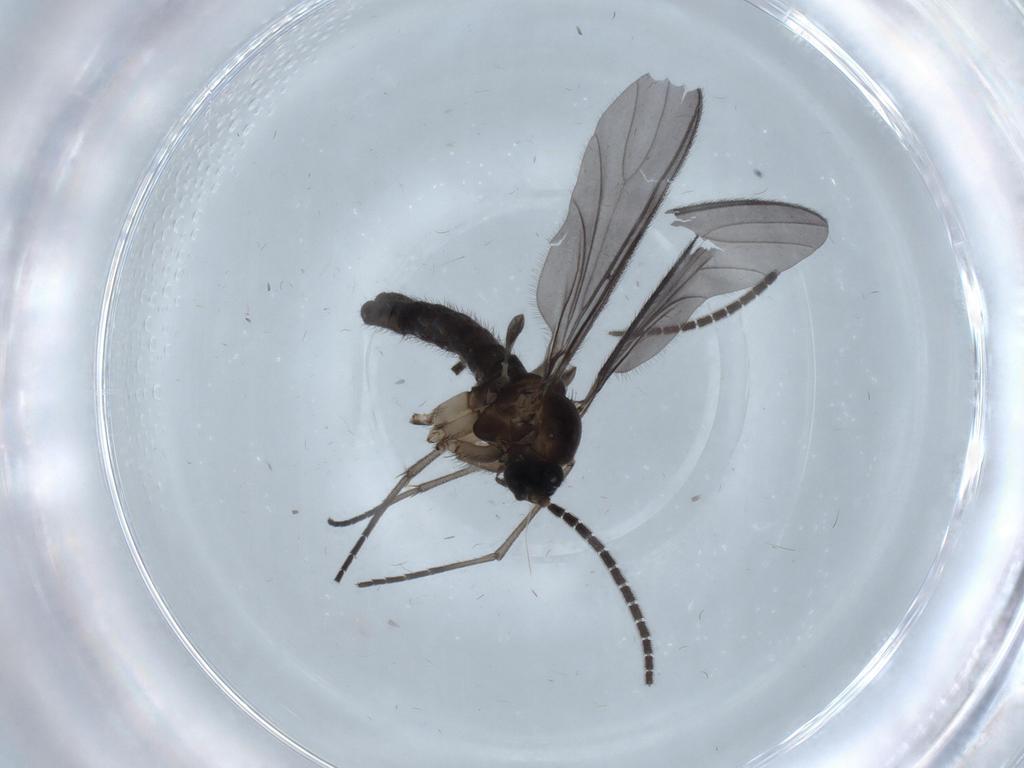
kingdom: Animalia
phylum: Arthropoda
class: Insecta
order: Diptera
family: Sciaridae
